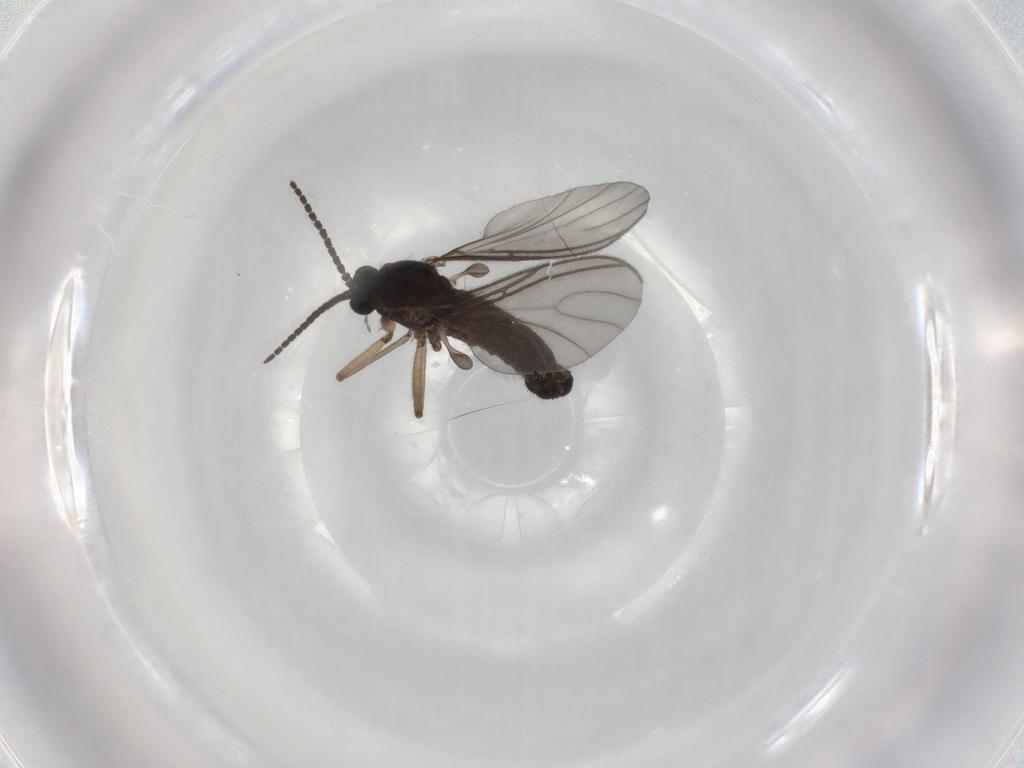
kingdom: Animalia
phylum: Arthropoda
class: Insecta
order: Diptera
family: Sciaridae
